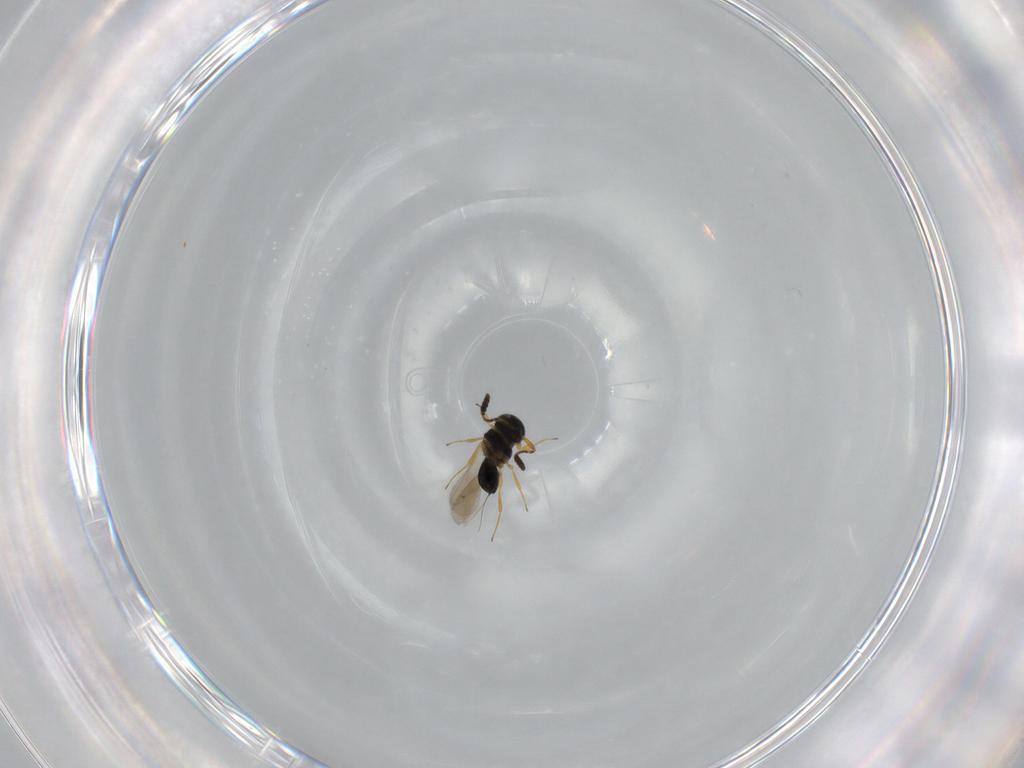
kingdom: Animalia
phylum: Arthropoda
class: Insecta
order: Hymenoptera
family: Scelionidae
